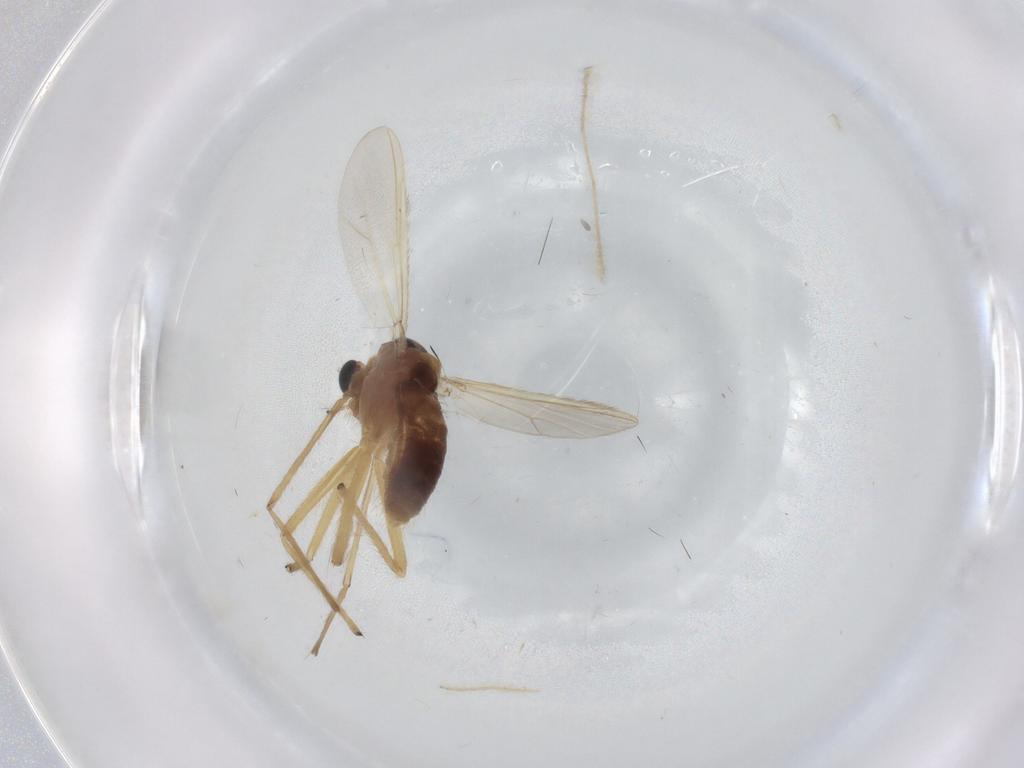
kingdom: Animalia
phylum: Arthropoda
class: Insecta
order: Diptera
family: Chironomidae
